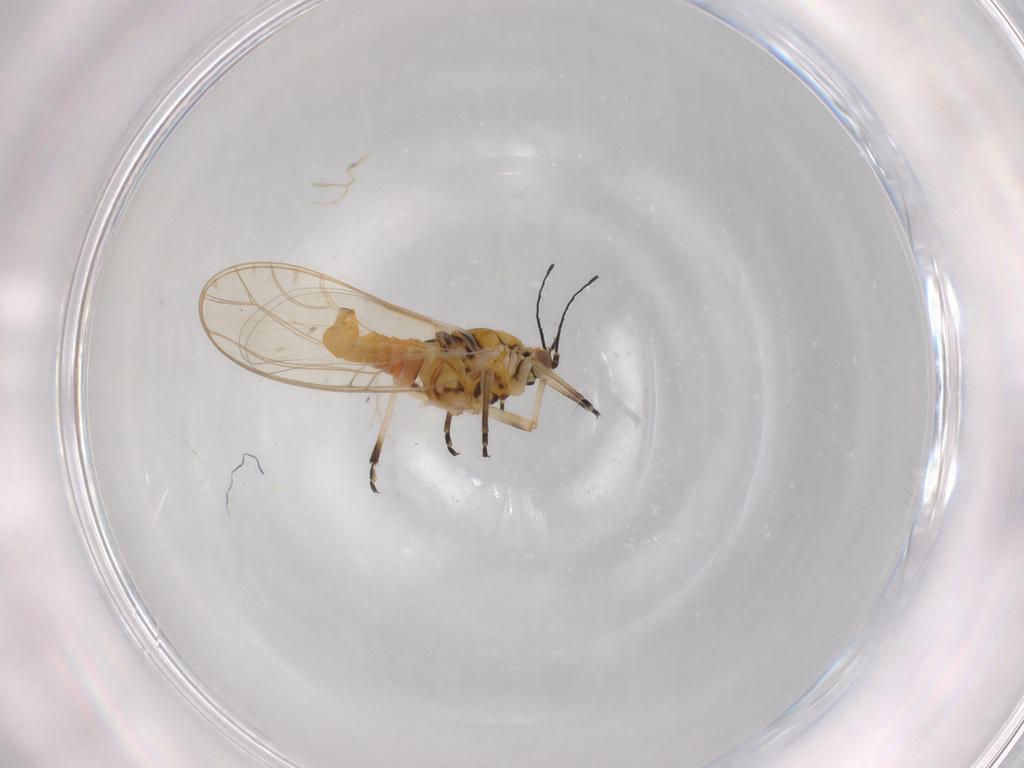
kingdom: Animalia
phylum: Arthropoda
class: Insecta
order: Hemiptera
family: Triozidae
